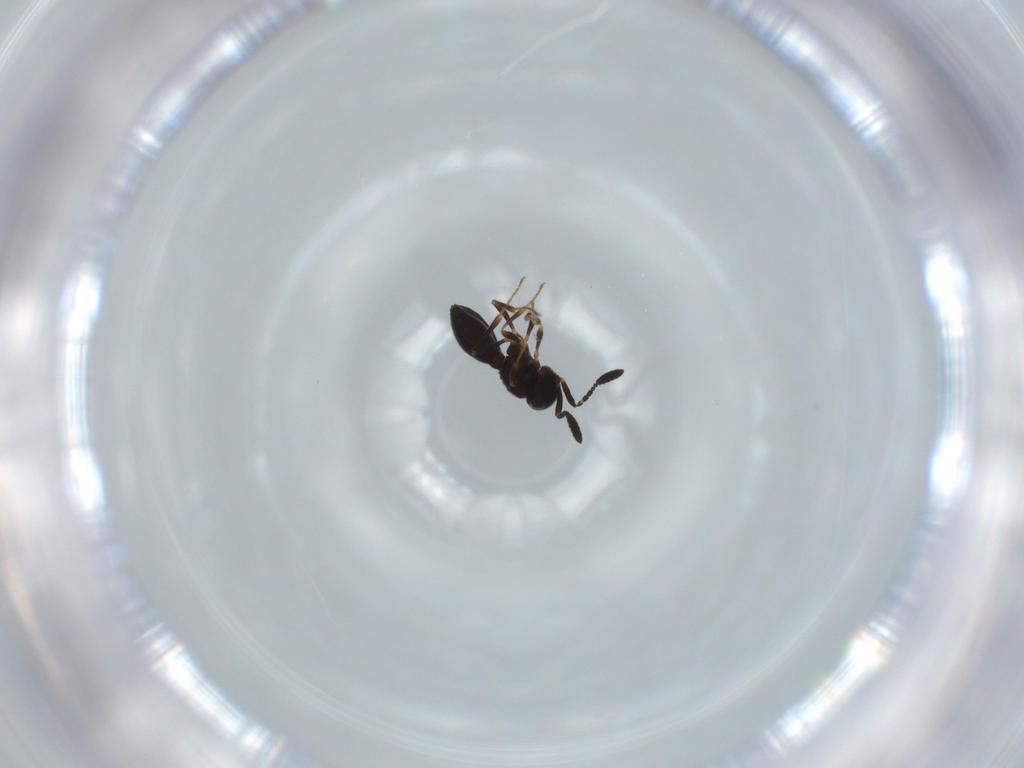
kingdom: Animalia
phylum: Arthropoda
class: Insecta
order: Hymenoptera
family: Scelionidae
